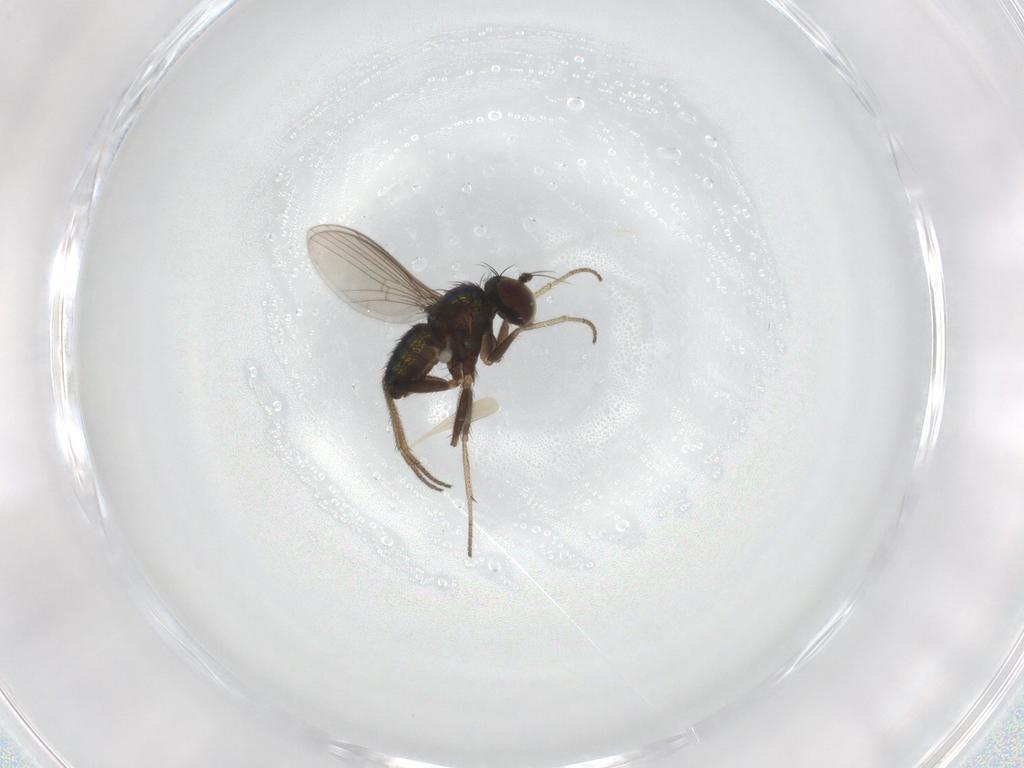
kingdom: Animalia
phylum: Arthropoda
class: Insecta
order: Diptera
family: Dolichopodidae
